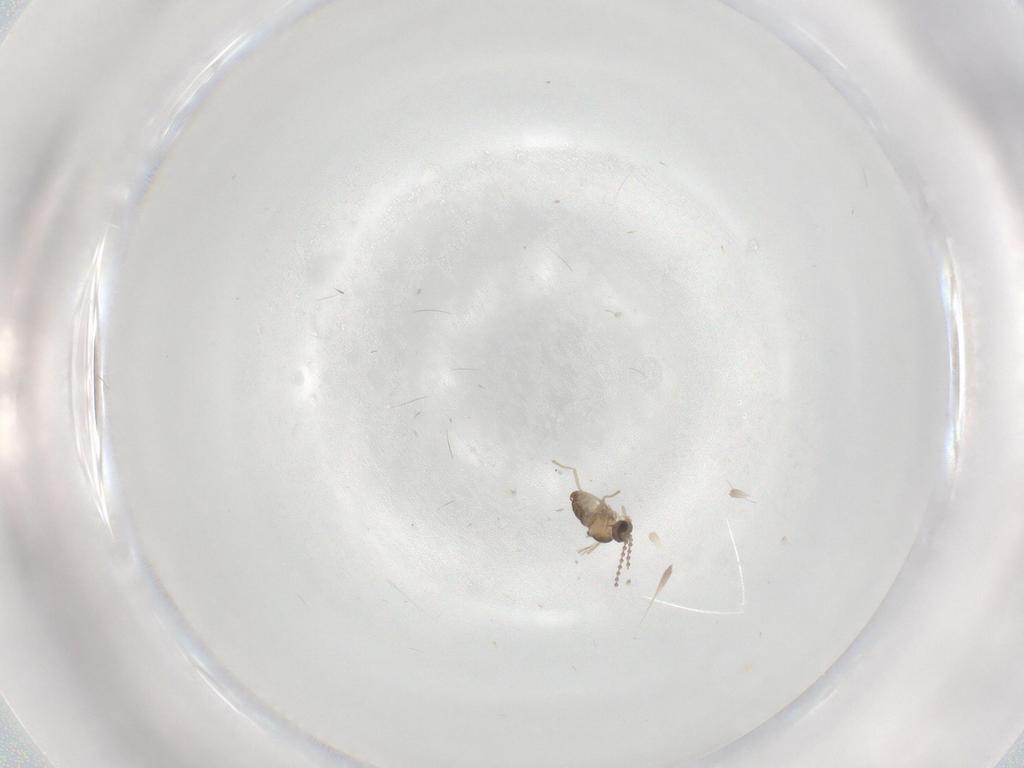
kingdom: Animalia
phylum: Arthropoda
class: Insecta
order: Diptera
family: Cecidomyiidae
